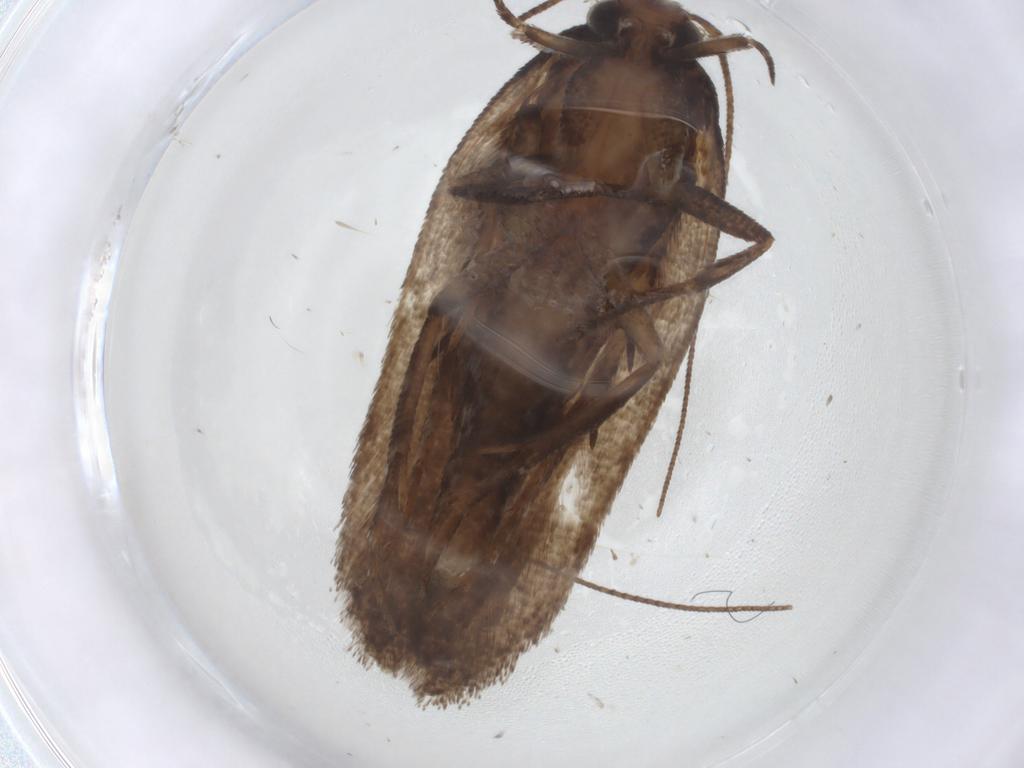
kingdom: Animalia
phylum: Arthropoda
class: Insecta
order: Lepidoptera
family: Gelechiidae
